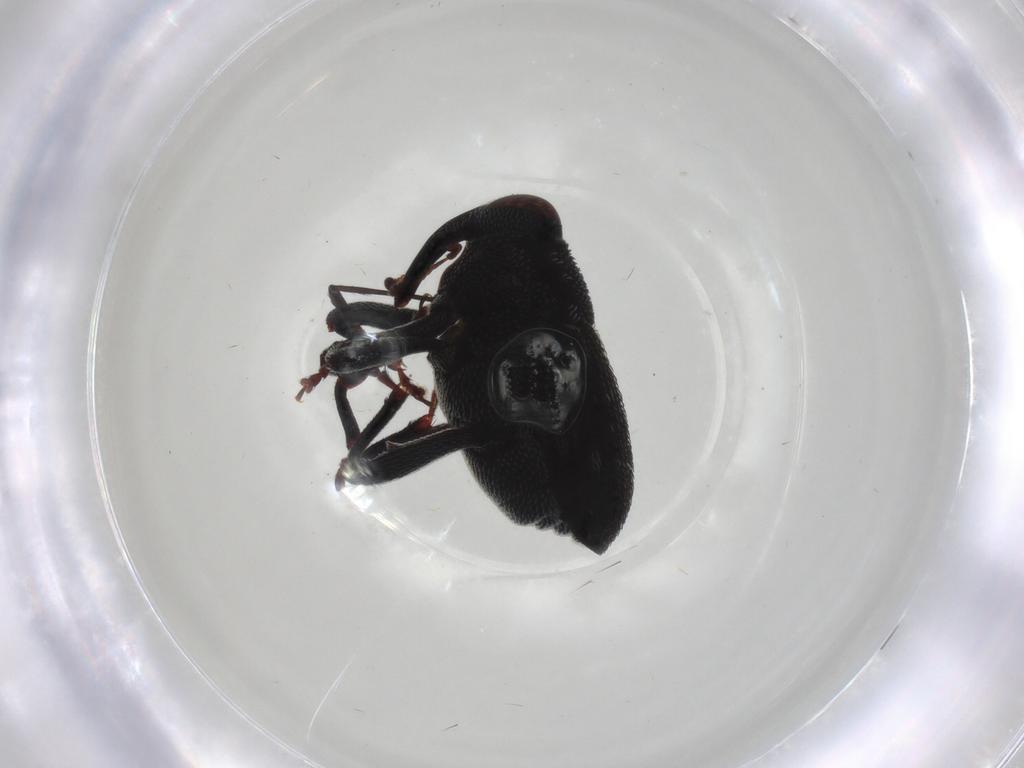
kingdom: Animalia
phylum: Arthropoda
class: Insecta
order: Coleoptera
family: Curculionidae
